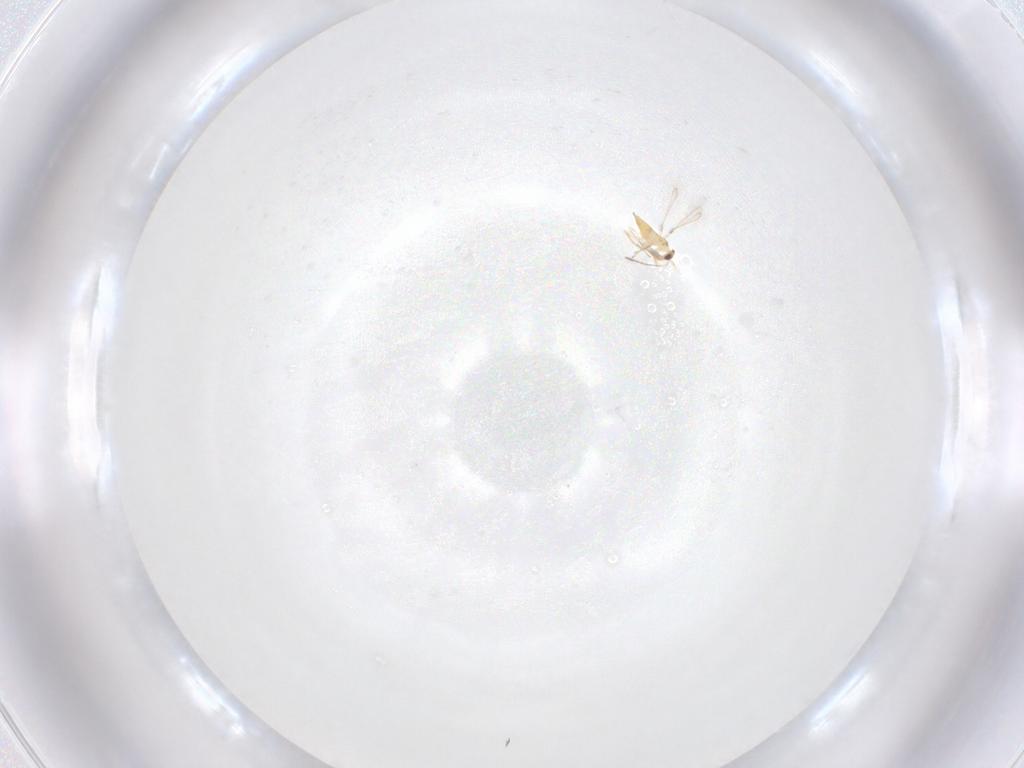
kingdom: Animalia
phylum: Arthropoda
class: Insecta
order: Hymenoptera
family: Mymaridae
